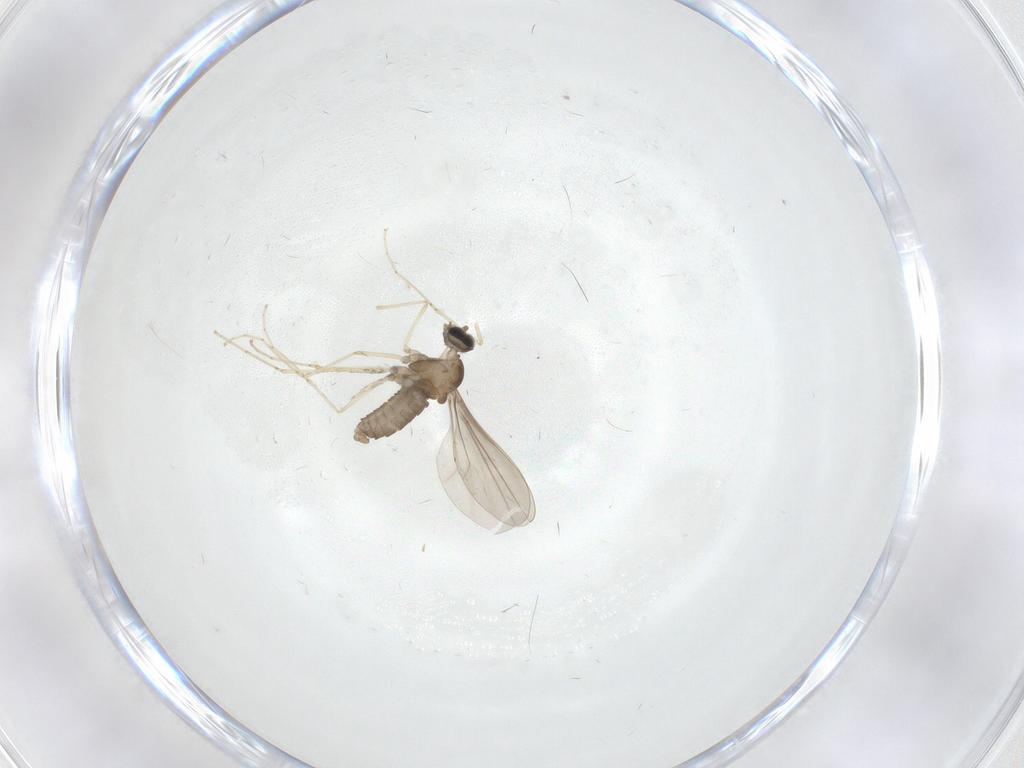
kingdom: Animalia
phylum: Arthropoda
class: Insecta
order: Diptera
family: Cecidomyiidae
